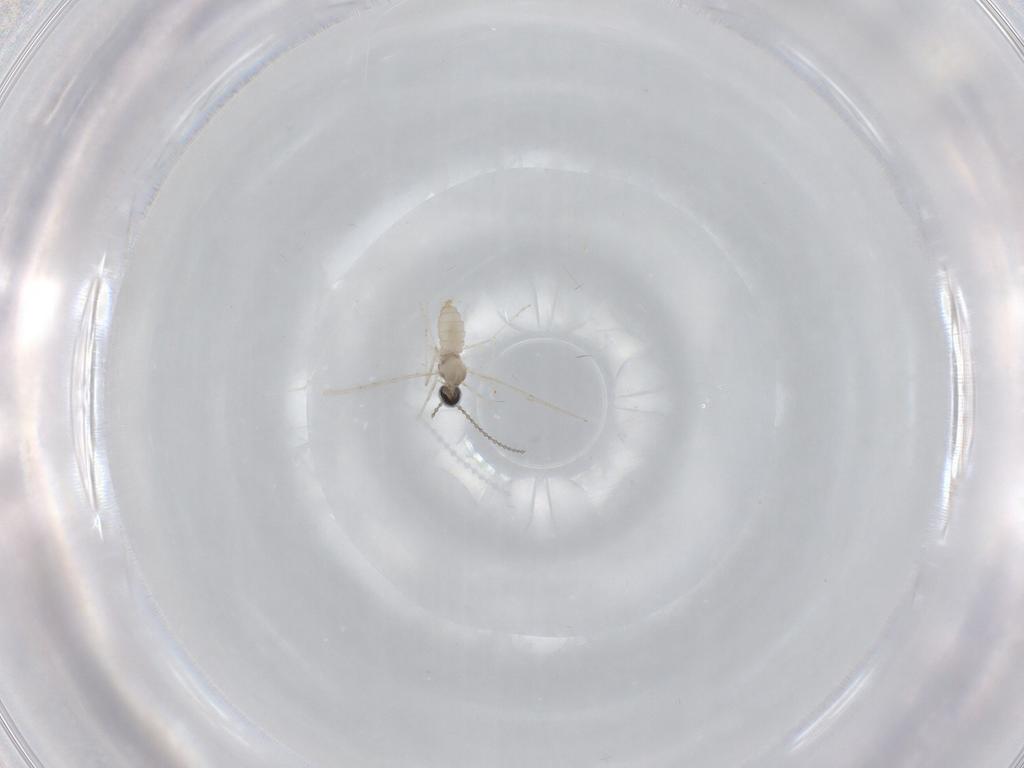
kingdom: Animalia
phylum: Arthropoda
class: Insecta
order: Diptera
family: Cecidomyiidae
